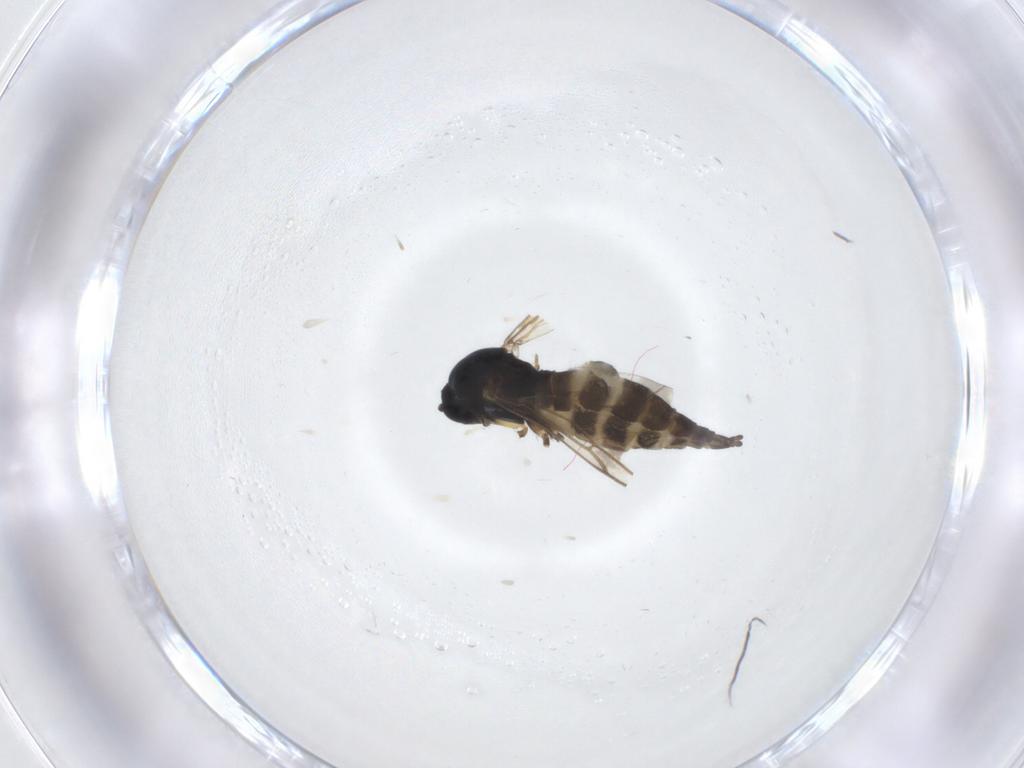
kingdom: Animalia
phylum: Arthropoda
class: Insecta
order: Diptera
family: Sciaridae
